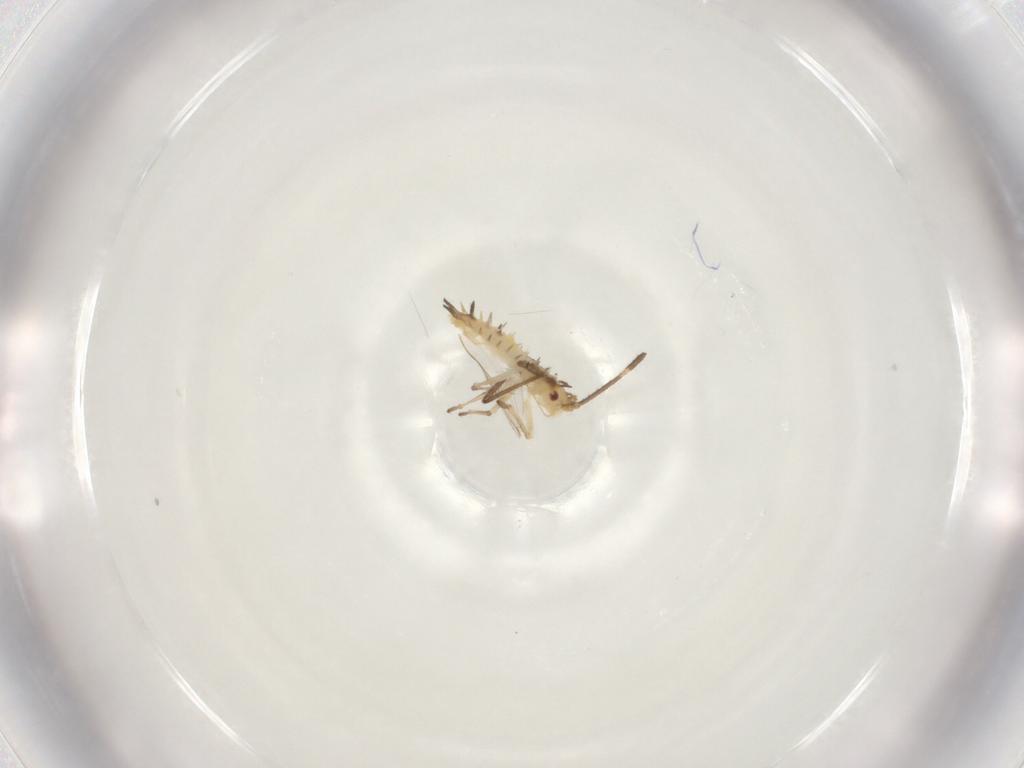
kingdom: Animalia
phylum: Arthropoda
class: Insecta
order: Hemiptera
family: Tingidae
